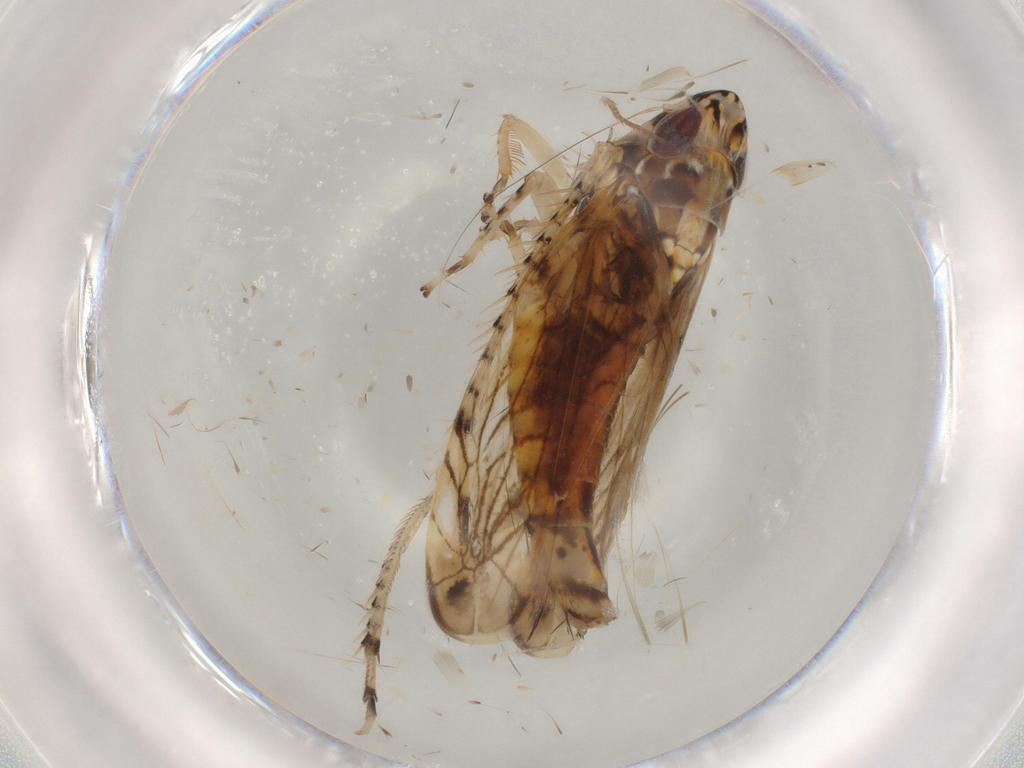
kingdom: Animalia
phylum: Arthropoda
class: Insecta
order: Hemiptera
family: Cicadellidae
